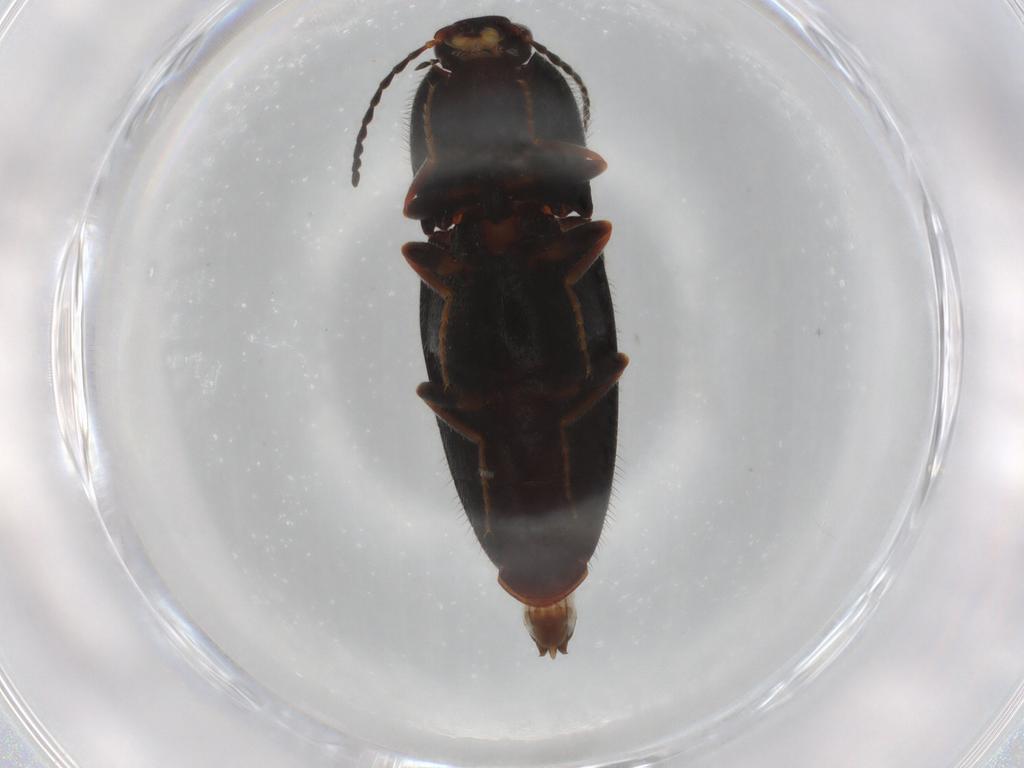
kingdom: Animalia
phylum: Arthropoda
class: Insecta
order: Coleoptera
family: Elateridae
